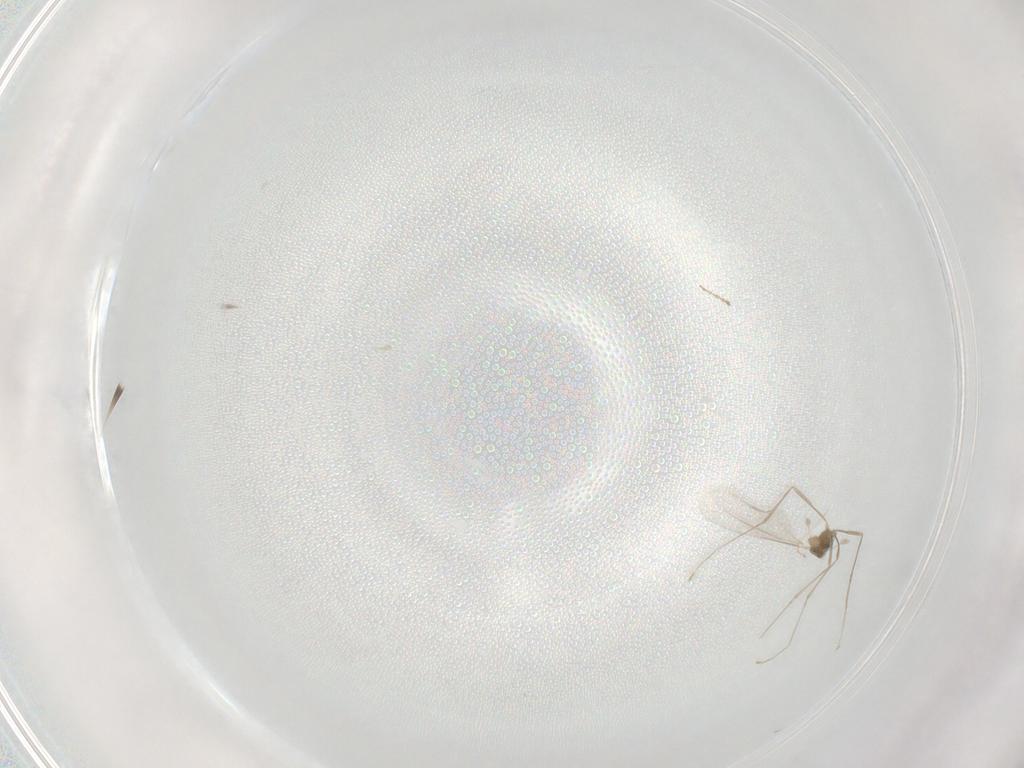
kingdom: Animalia
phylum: Arthropoda
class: Insecta
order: Diptera
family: Cecidomyiidae
